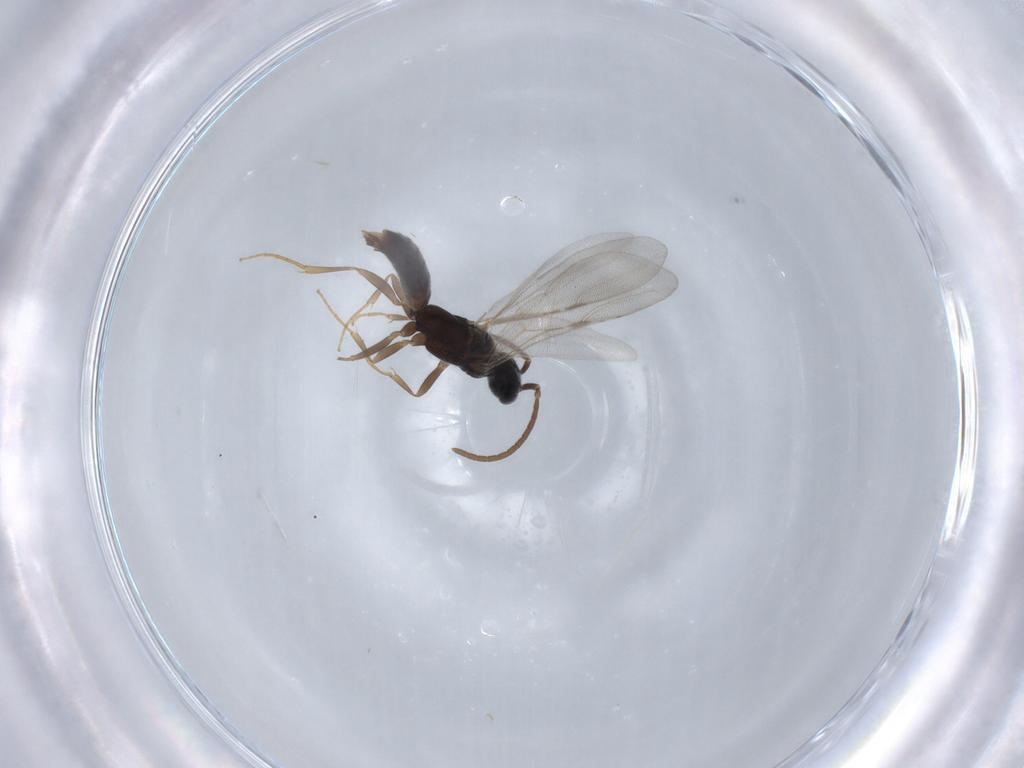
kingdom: Animalia
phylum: Arthropoda
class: Insecta
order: Hymenoptera
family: Bethylidae
